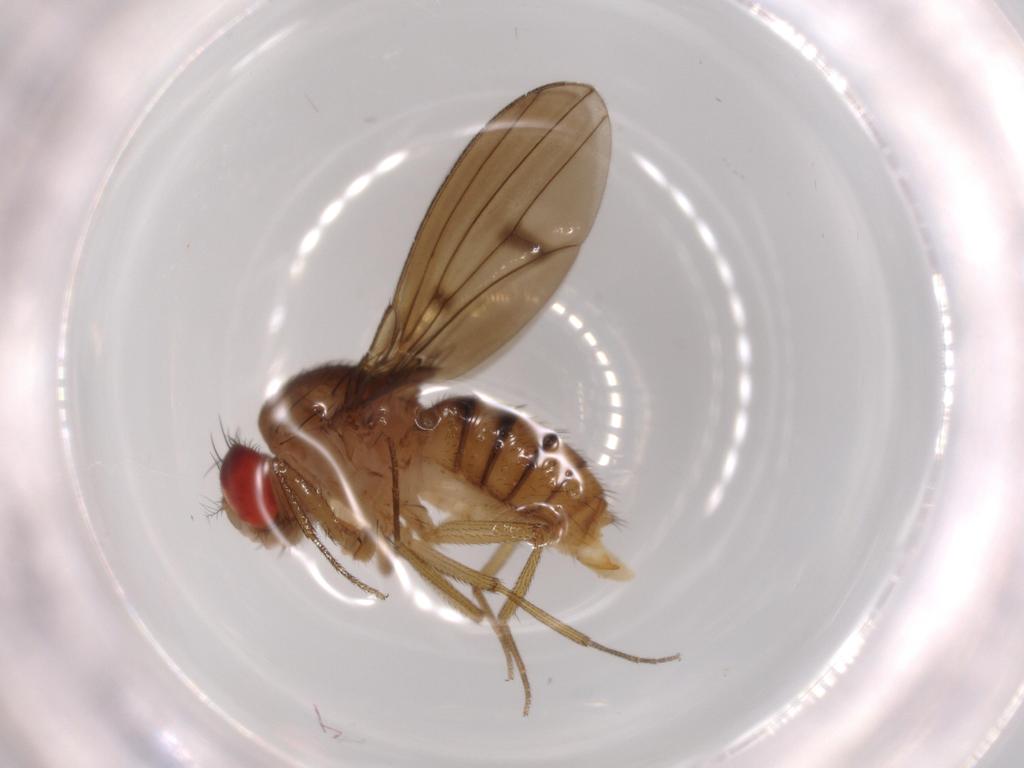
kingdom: Animalia
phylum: Arthropoda
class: Insecta
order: Diptera
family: Drosophilidae
